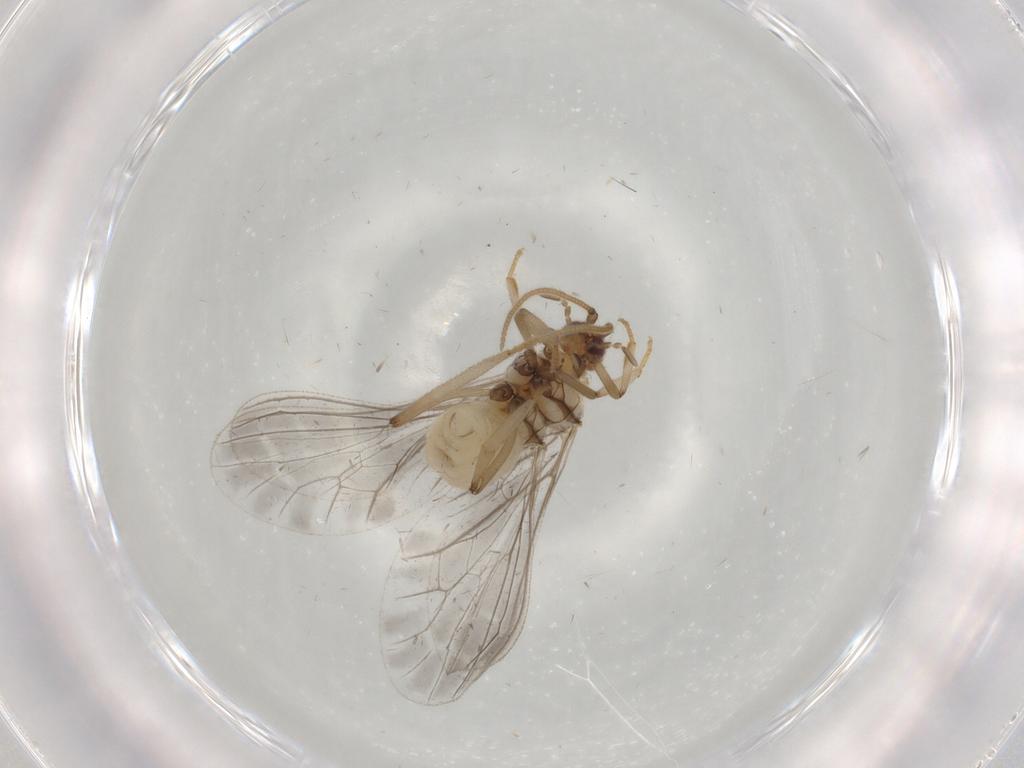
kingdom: Animalia
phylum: Arthropoda
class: Insecta
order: Neuroptera
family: Coniopterygidae
